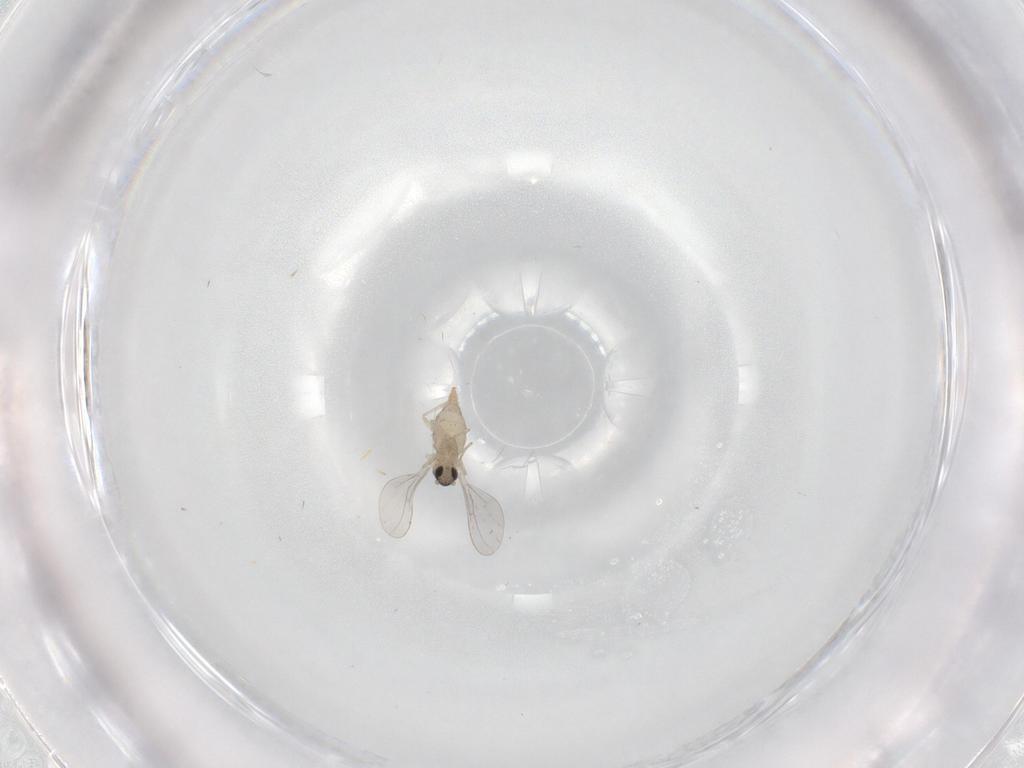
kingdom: Animalia
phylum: Arthropoda
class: Insecta
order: Diptera
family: Cecidomyiidae
